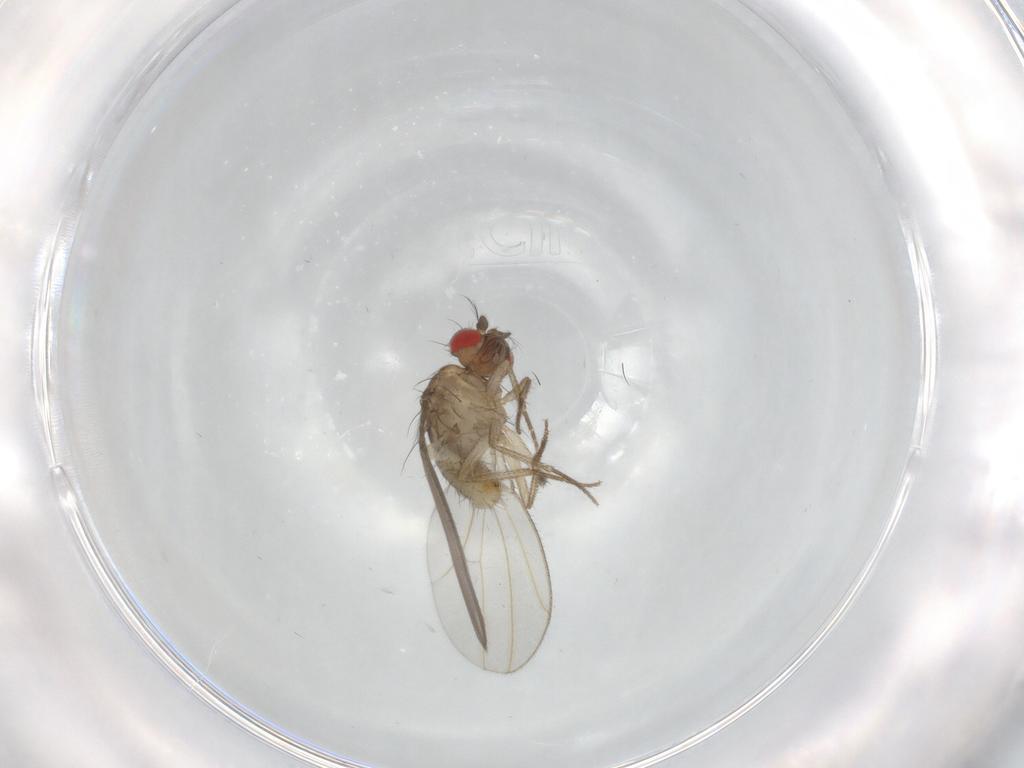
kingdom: Animalia
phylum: Arthropoda
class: Insecta
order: Diptera
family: Drosophilidae
